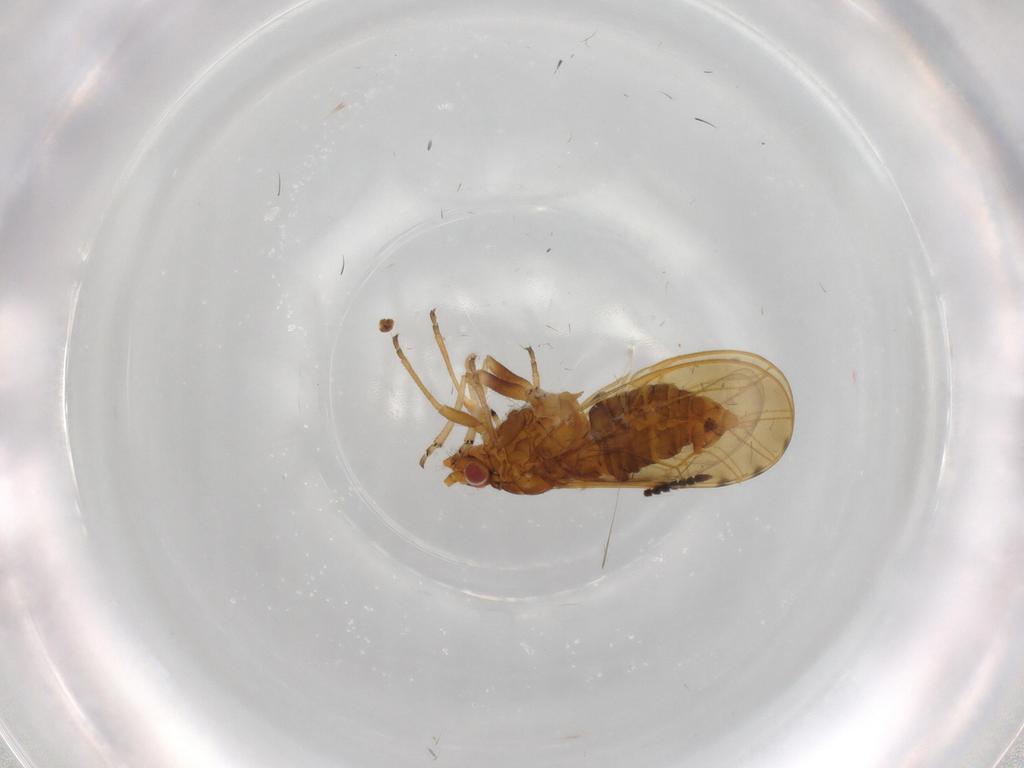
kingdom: Animalia
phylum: Arthropoda
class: Insecta
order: Hemiptera
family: Psylloidea_incertae_sedis
